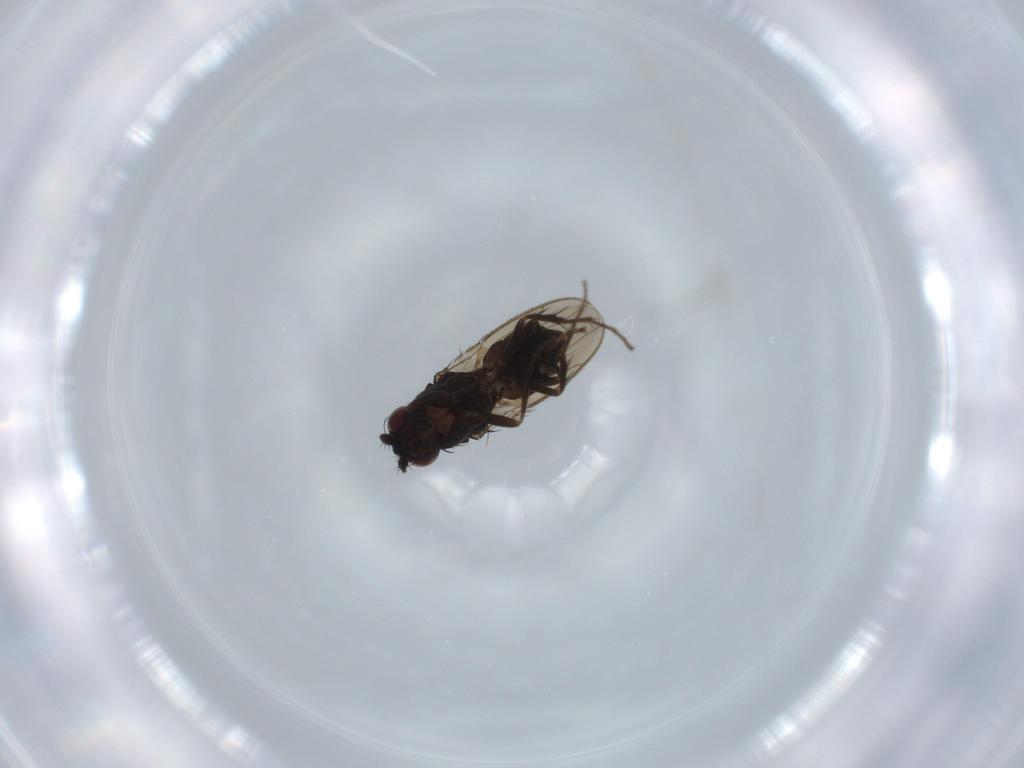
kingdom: Animalia
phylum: Arthropoda
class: Insecta
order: Diptera
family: Sphaeroceridae
